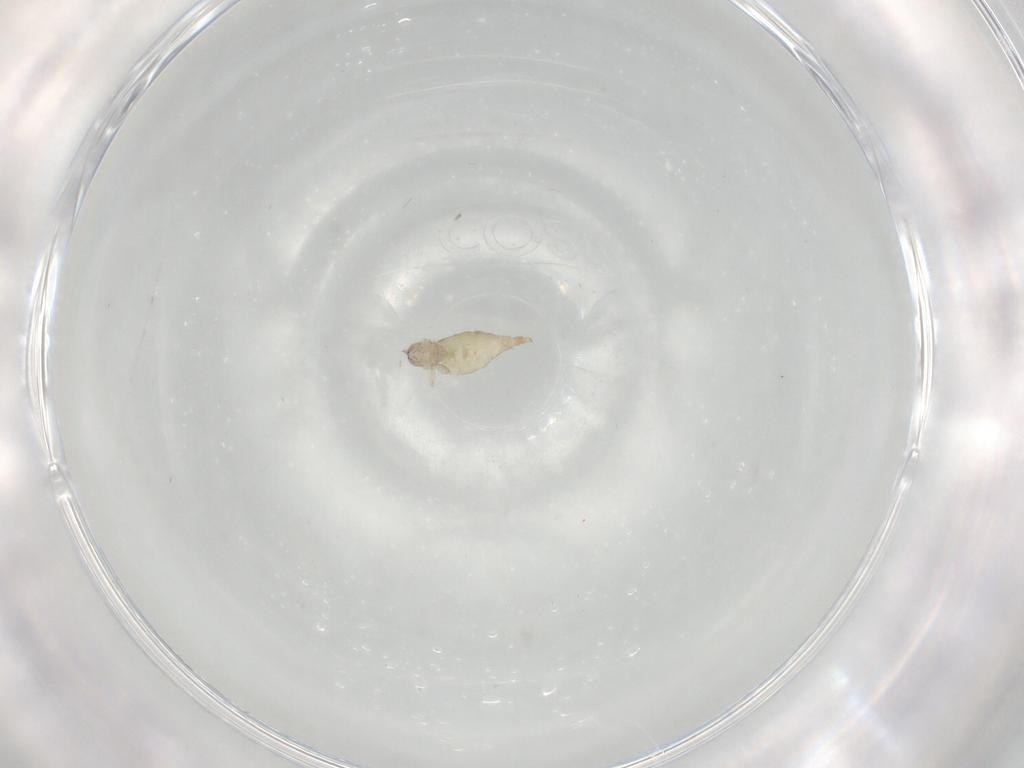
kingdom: Animalia
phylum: Arthropoda
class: Insecta
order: Diptera
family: Cecidomyiidae
